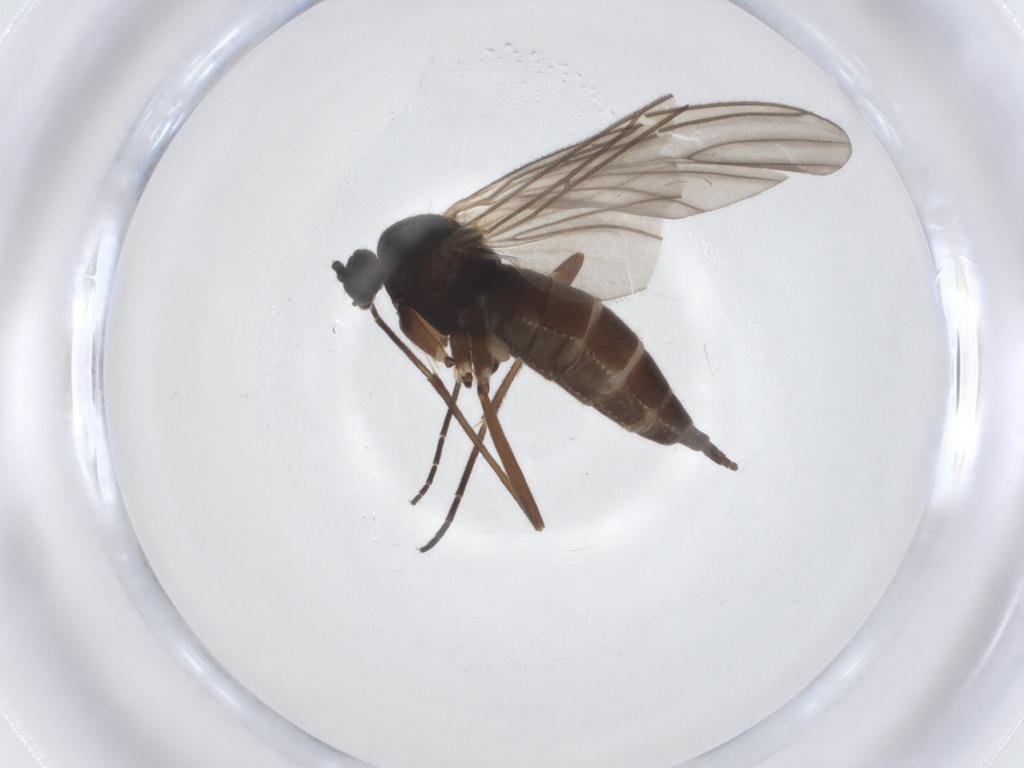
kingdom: Animalia
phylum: Arthropoda
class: Insecta
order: Diptera
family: Sciaridae
